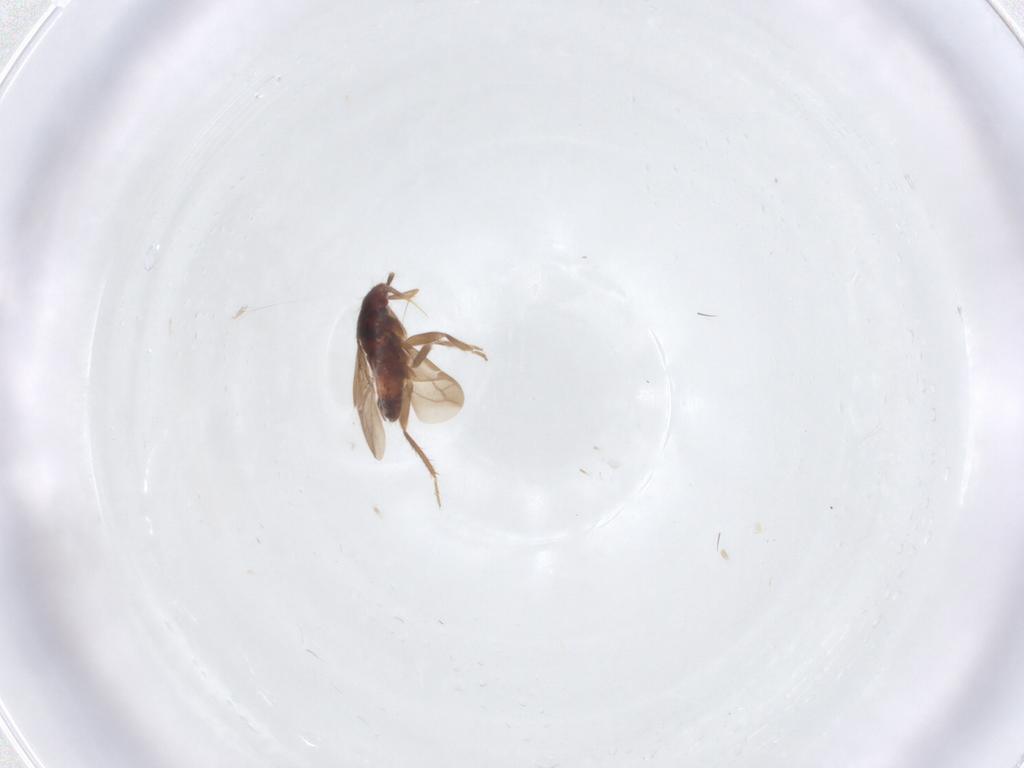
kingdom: Animalia
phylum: Arthropoda
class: Insecta
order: Hemiptera
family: Ceratocombidae
